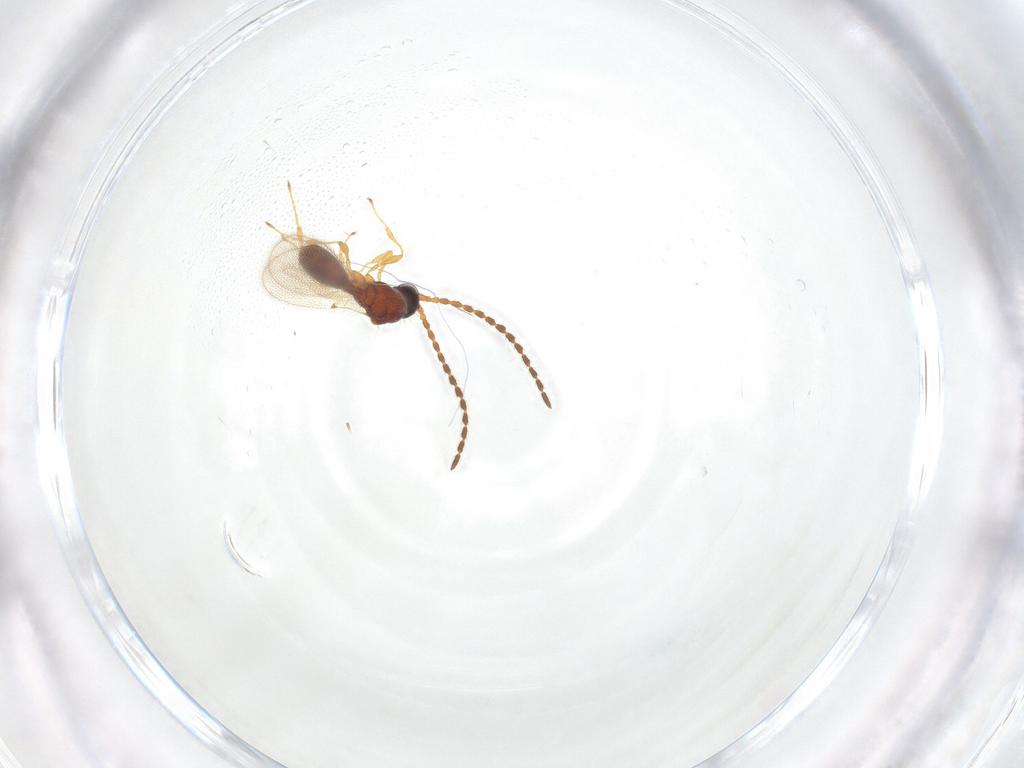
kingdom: Animalia
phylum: Arthropoda
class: Insecta
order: Hymenoptera
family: Diapriidae
